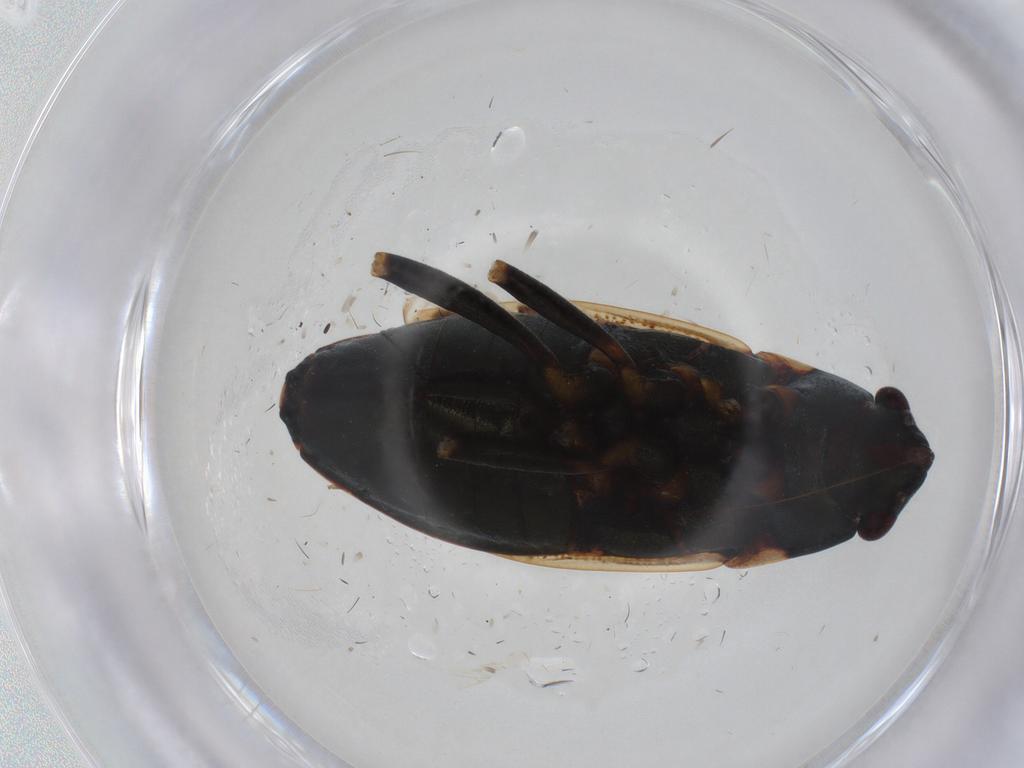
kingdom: Animalia
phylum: Arthropoda
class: Insecta
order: Hemiptera
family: Rhyparochromidae
